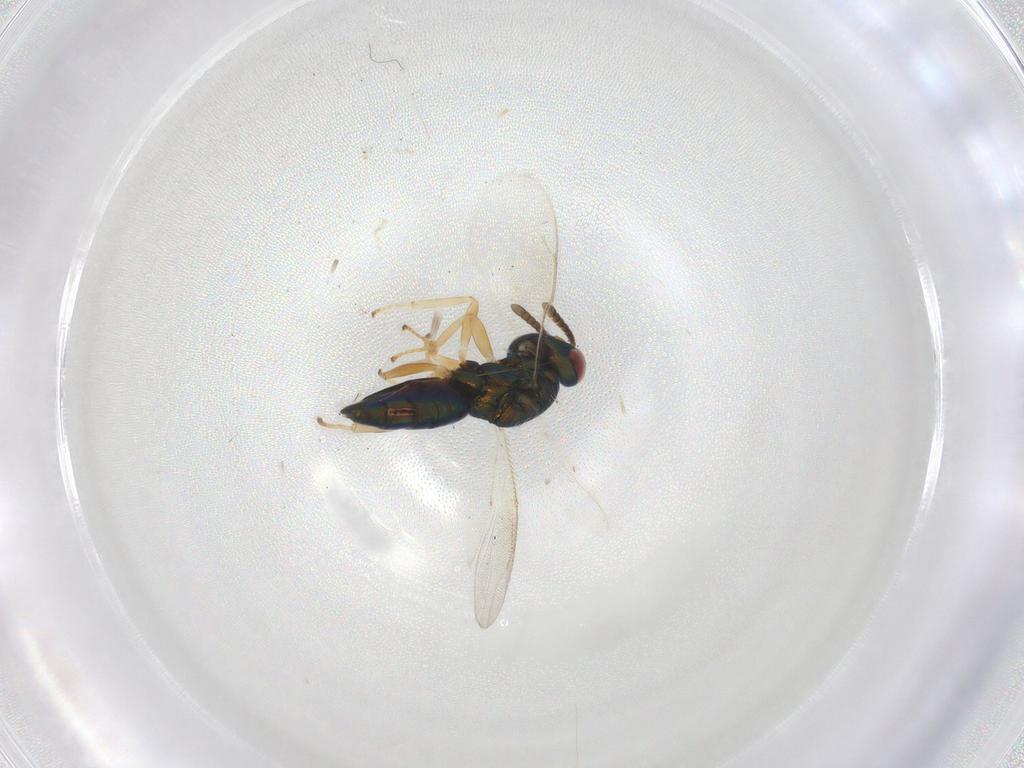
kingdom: Animalia
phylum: Arthropoda
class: Insecta
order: Hymenoptera
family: Pteromalidae
